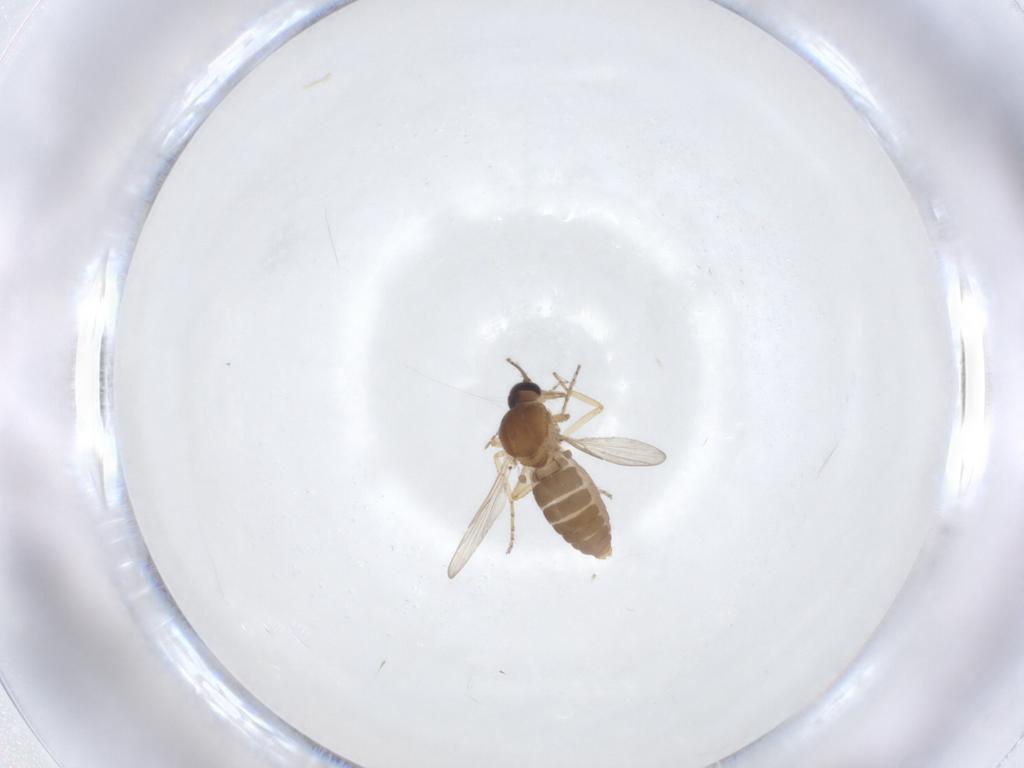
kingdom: Animalia
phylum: Arthropoda
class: Insecta
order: Diptera
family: Ceratopogonidae
